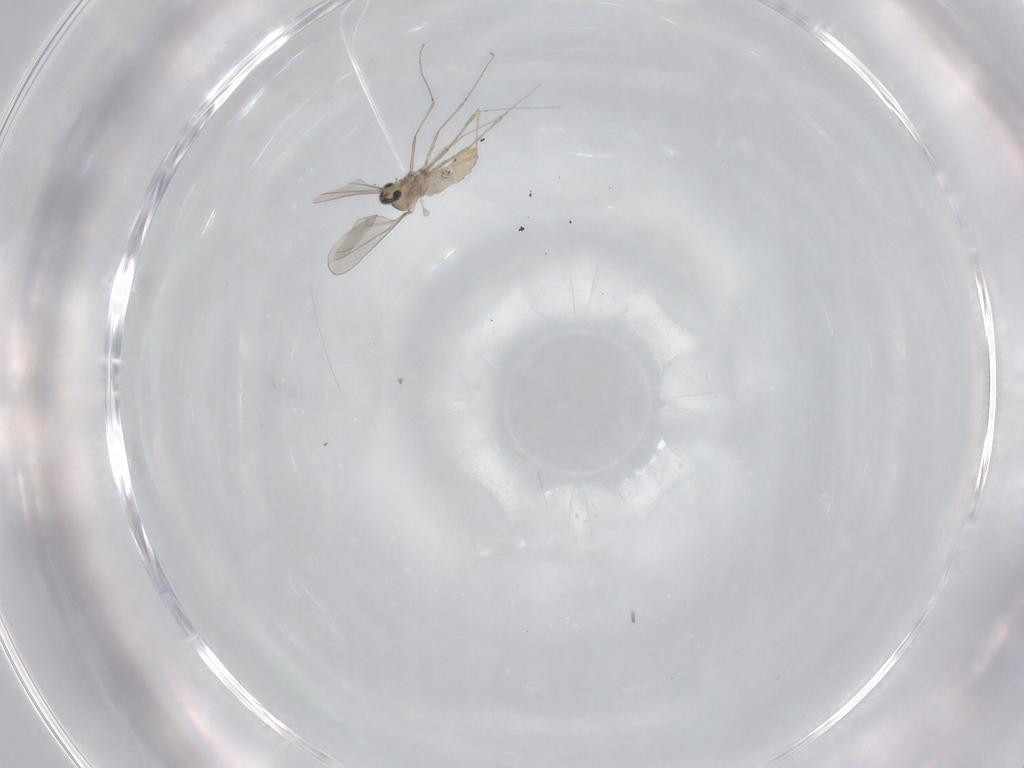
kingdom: Animalia
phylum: Arthropoda
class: Insecta
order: Diptera
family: Cecidomyiidae
